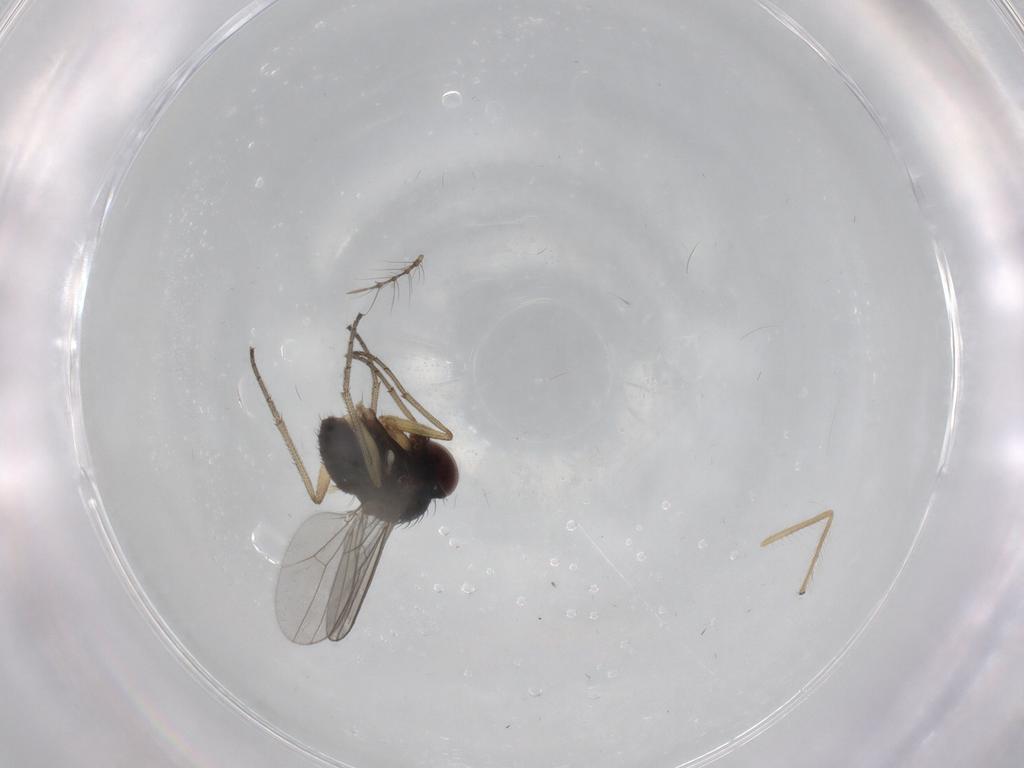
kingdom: Animalia
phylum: Arthropoda
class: Insecta
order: Diptera
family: Dolichopodidae
